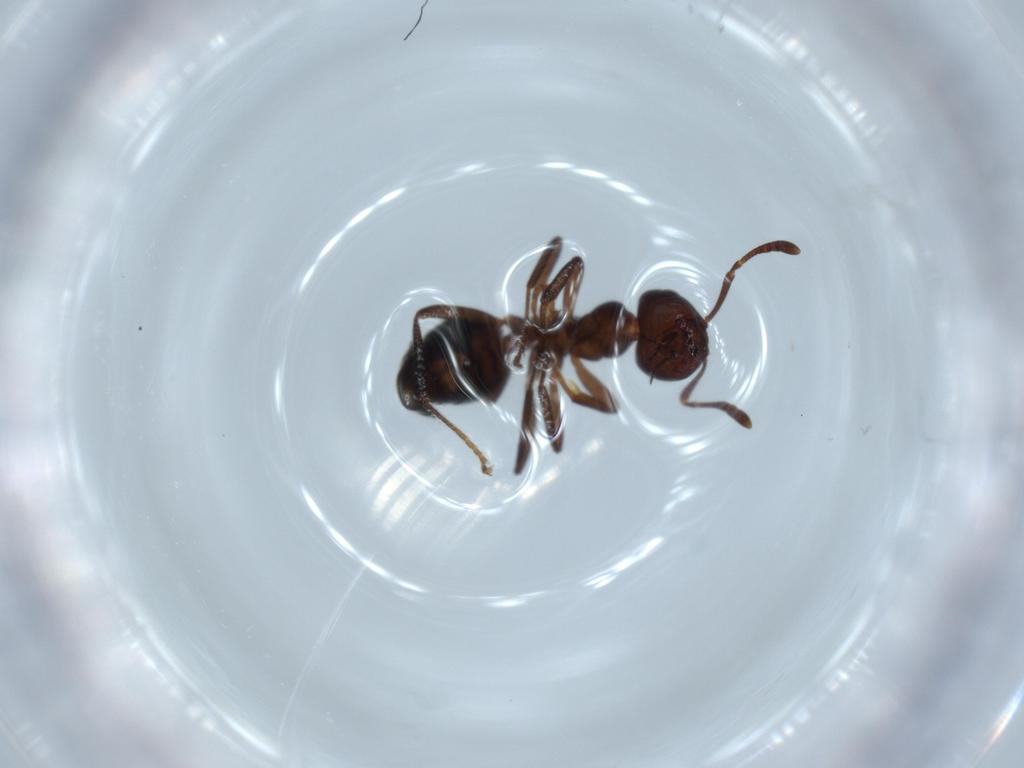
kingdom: Animalia
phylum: Arthropoda
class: Insecta
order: Hymenoptera
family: Formicidae
